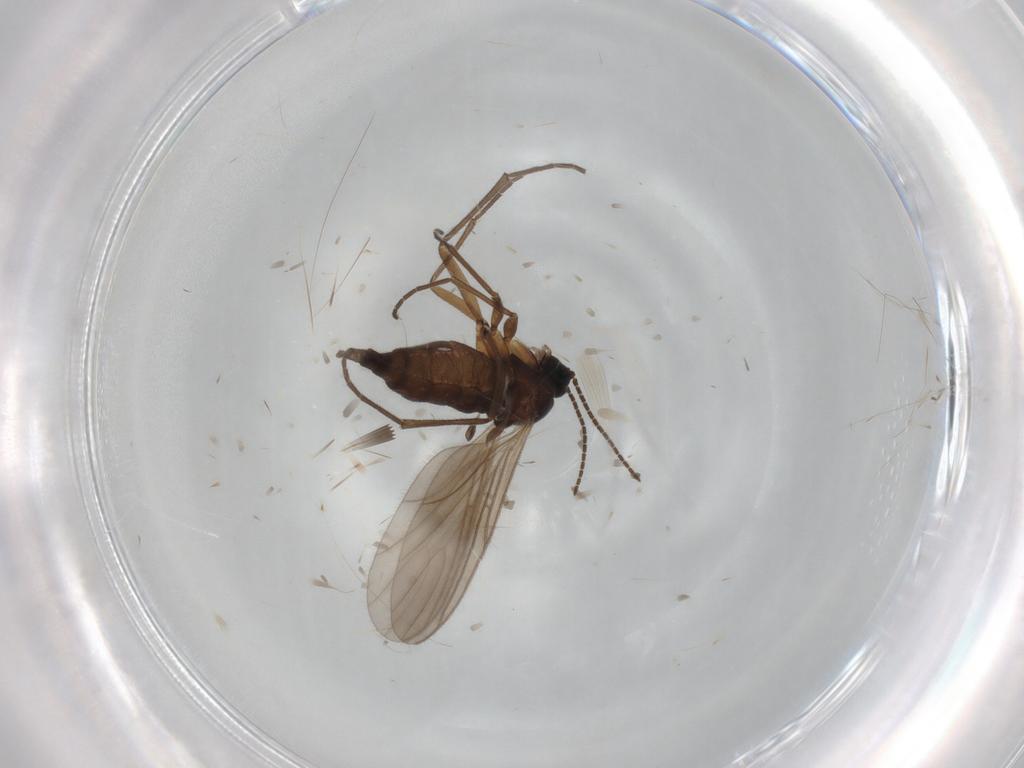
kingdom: Animalia
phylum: Arthropoda
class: Insecta
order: Diptera
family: Sciaridae
